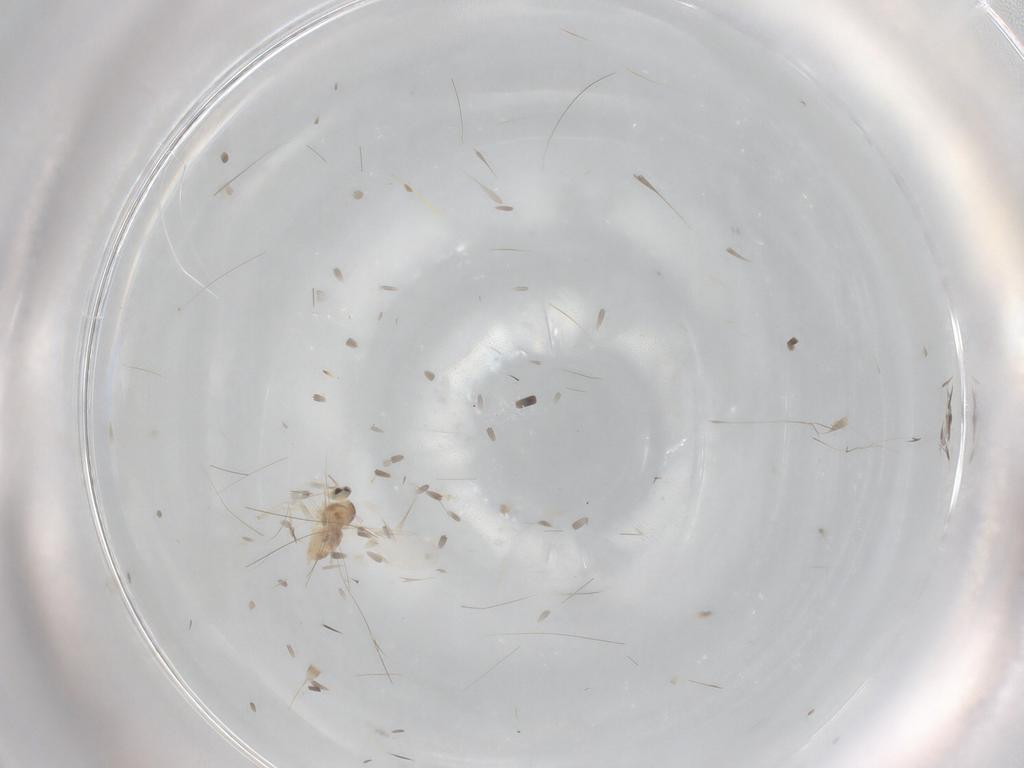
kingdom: Animalia
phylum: Arthropoda
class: Insecta
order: Diptera
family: Cecidomyiidae
